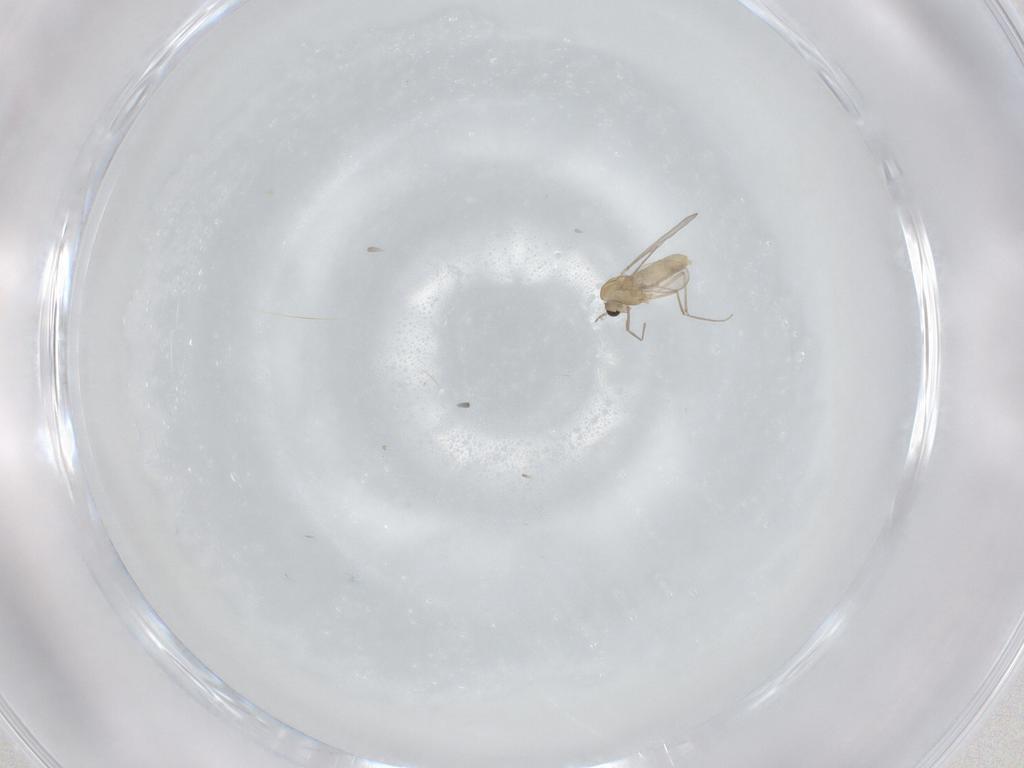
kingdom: Animalia
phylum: Arthropoda
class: Insecta
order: Diptera
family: Chironomidae
